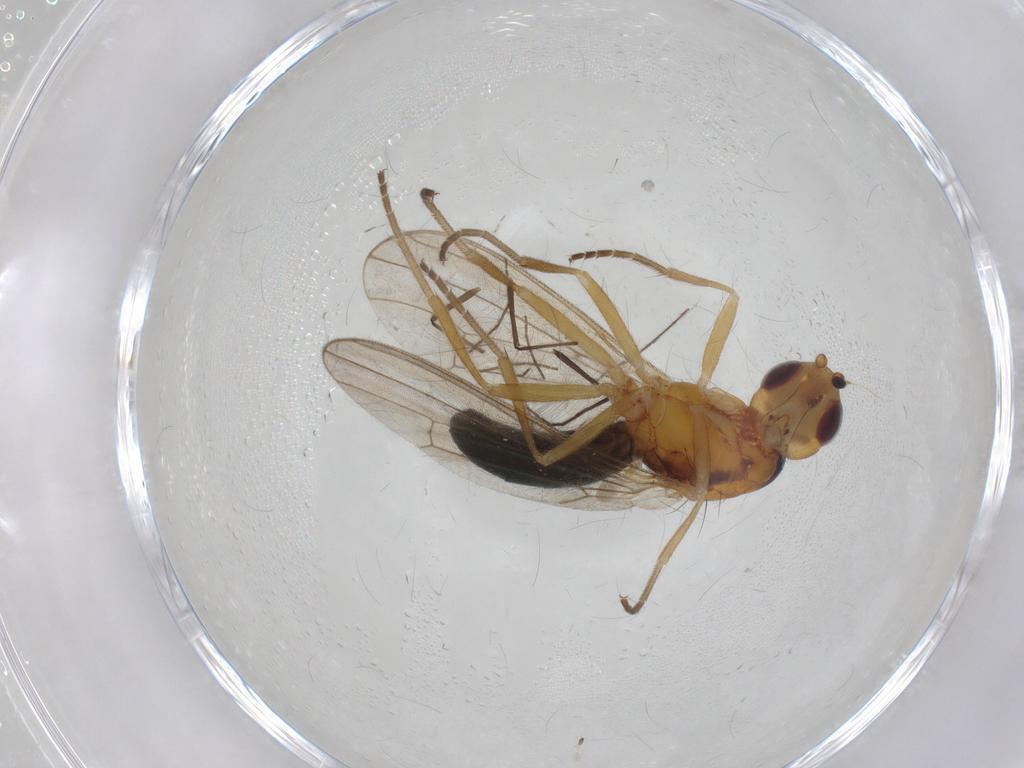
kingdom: Animalia
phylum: Arthropoda
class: Insecta
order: Diptera
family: Psilidae
